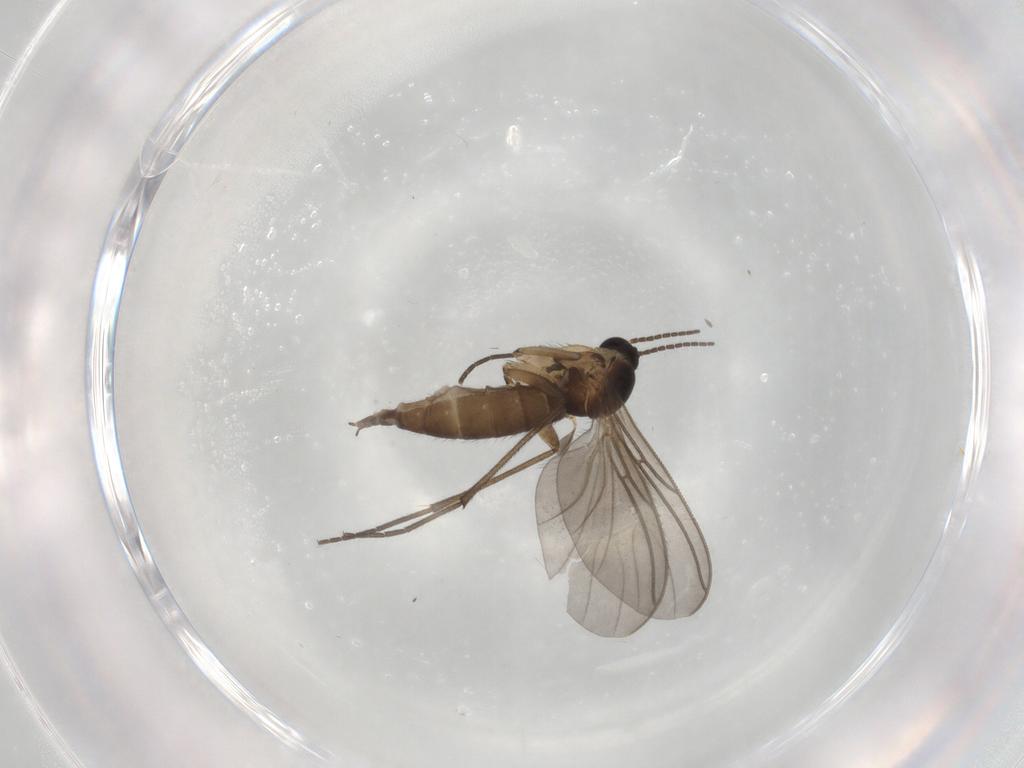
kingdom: Animalia
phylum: Arthropoda
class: Insecta
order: Diptera
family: Sciaridae
